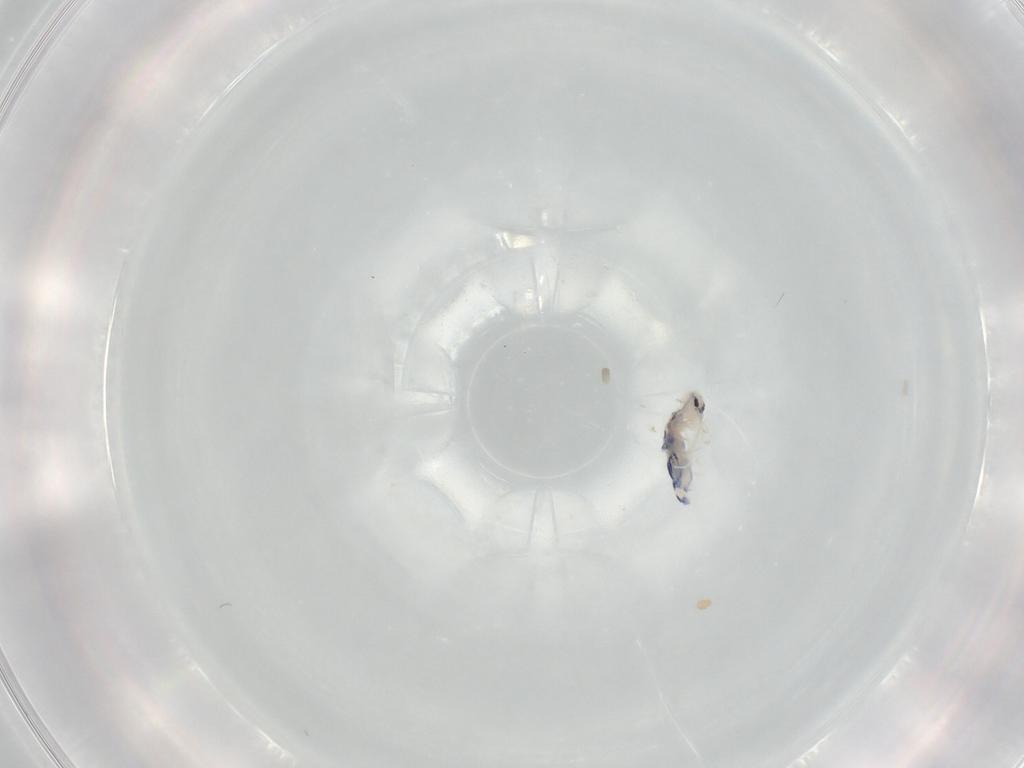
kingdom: Animalia
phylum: Arthropoda
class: Collembola
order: Entomobryomorpha
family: Entomobryidae
